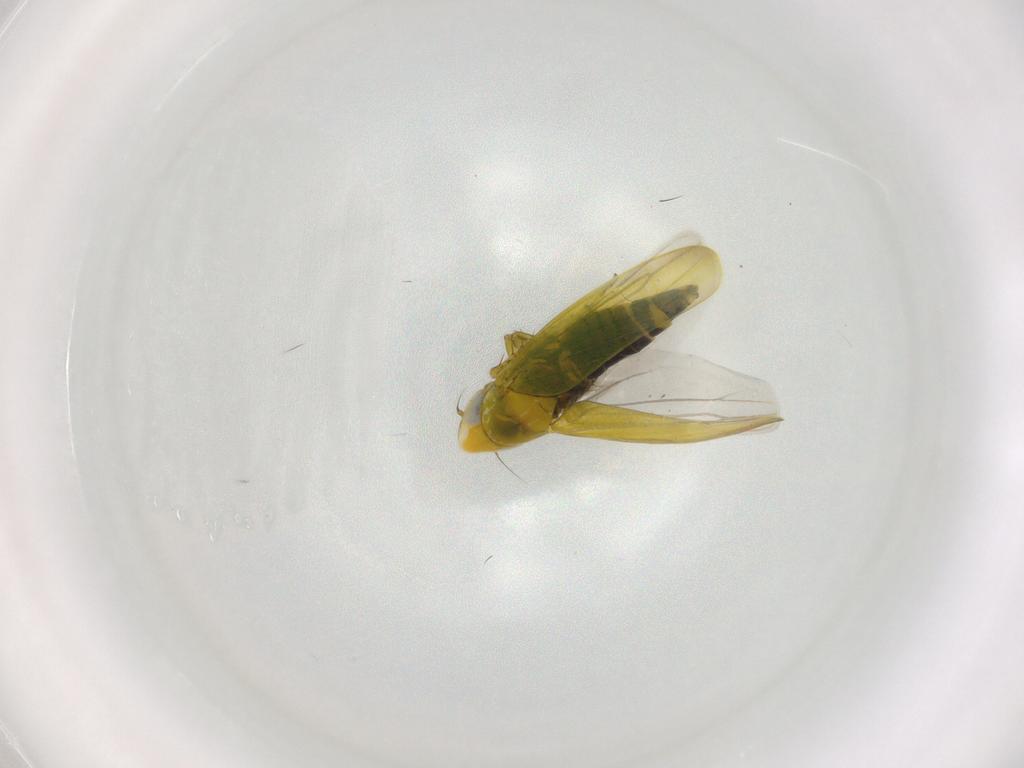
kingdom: Animalia
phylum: Arthropoda
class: Insecta
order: Hemiptera
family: Cicadellidae
